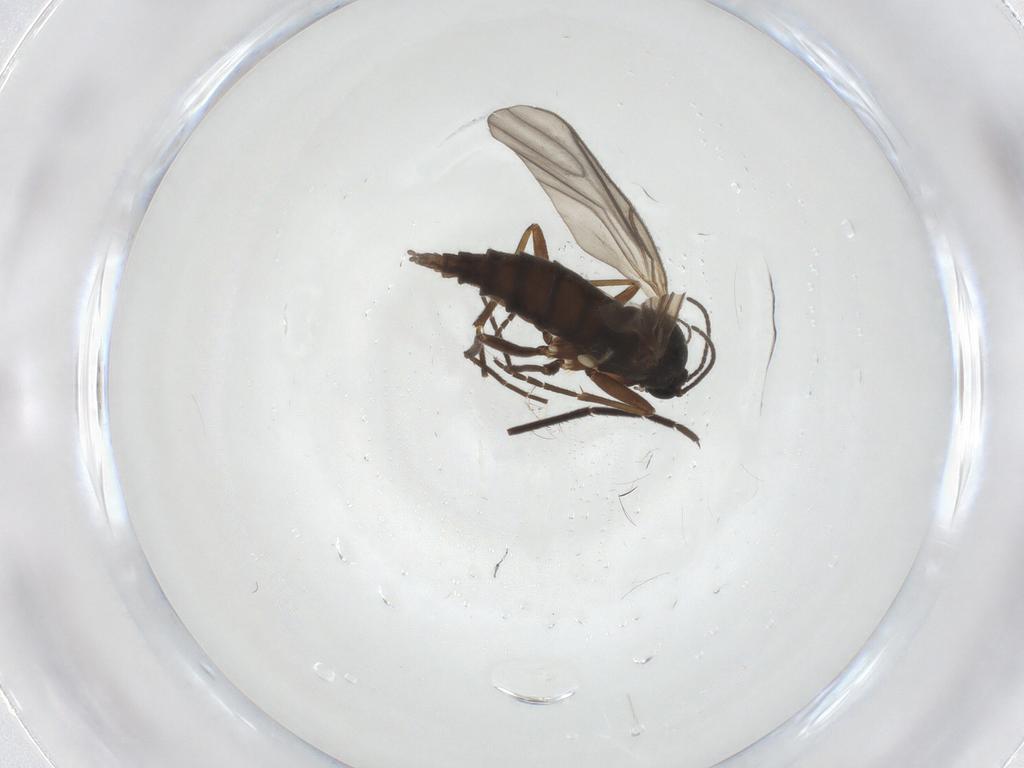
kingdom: Animalia
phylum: Arthropoda
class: Insecta
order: Diptera
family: Sciaridae
